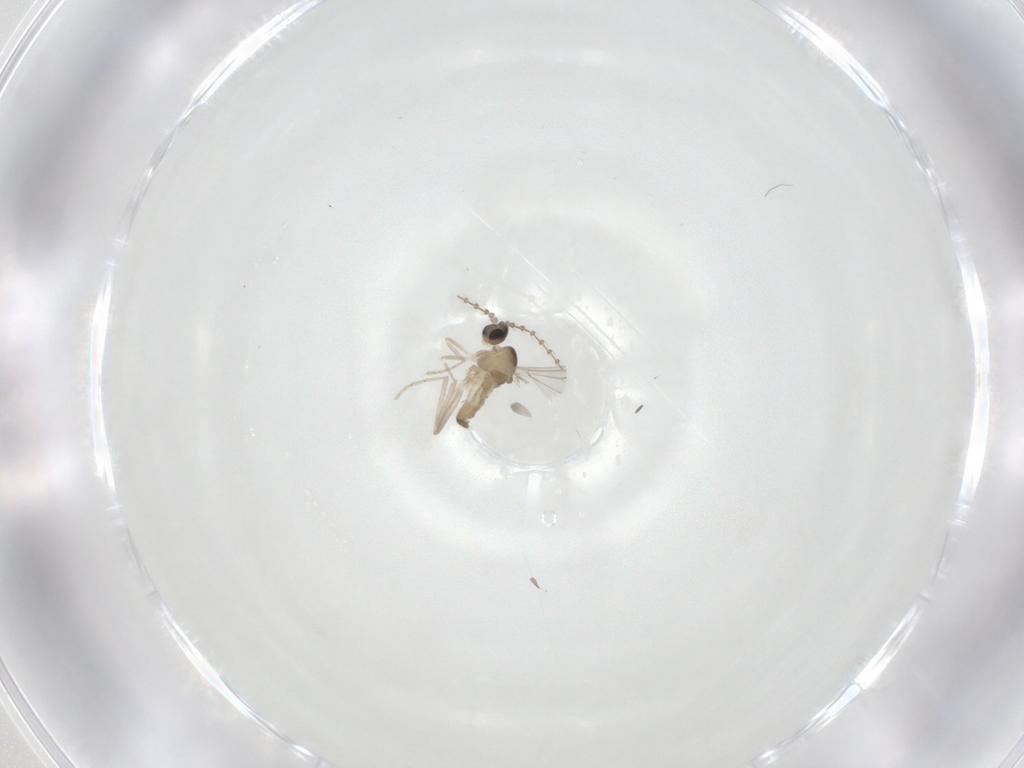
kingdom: Animalia
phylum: Arthropoda
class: Insecta
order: Diptera
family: Cecidomyiidae
